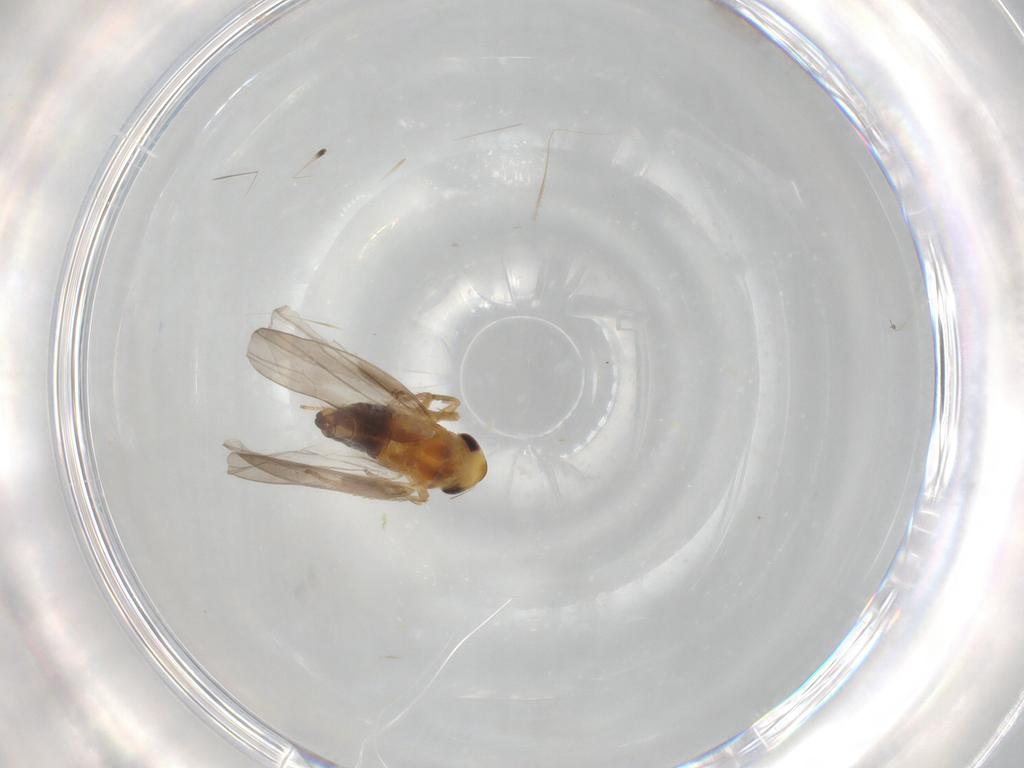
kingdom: Animalia
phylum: Arthropoda
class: Insecta
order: Hemiptera
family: Cicadellidae
